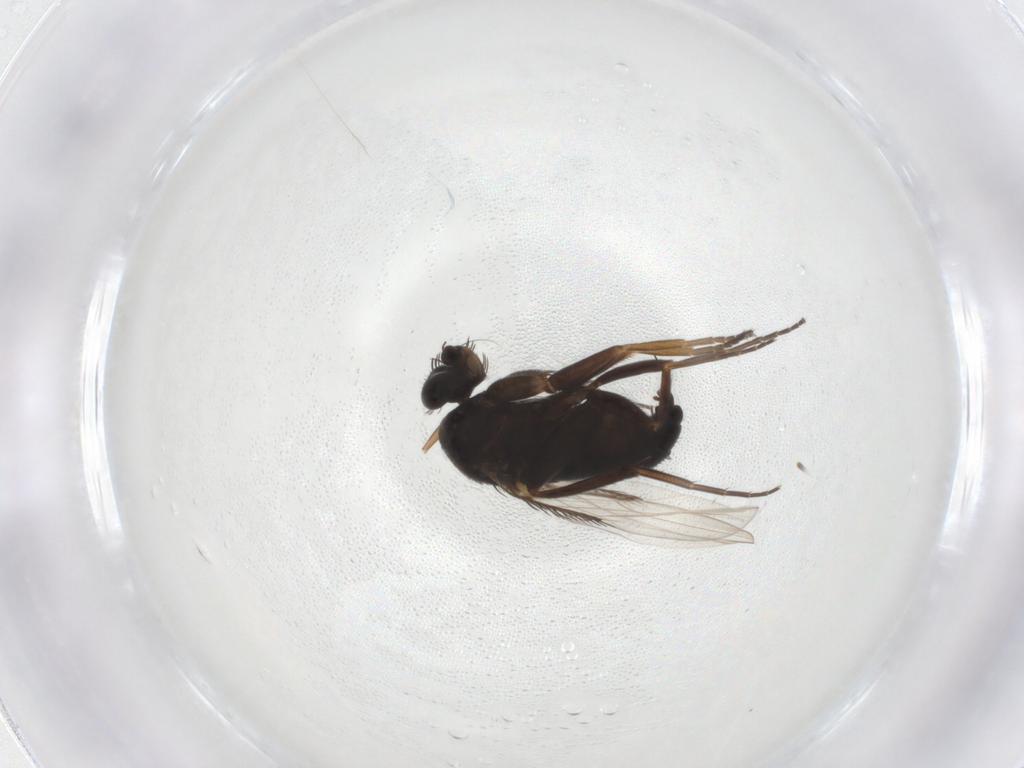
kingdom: Animalia
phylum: Arthropoda
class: Insecta
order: Diptera
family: Phoridae
